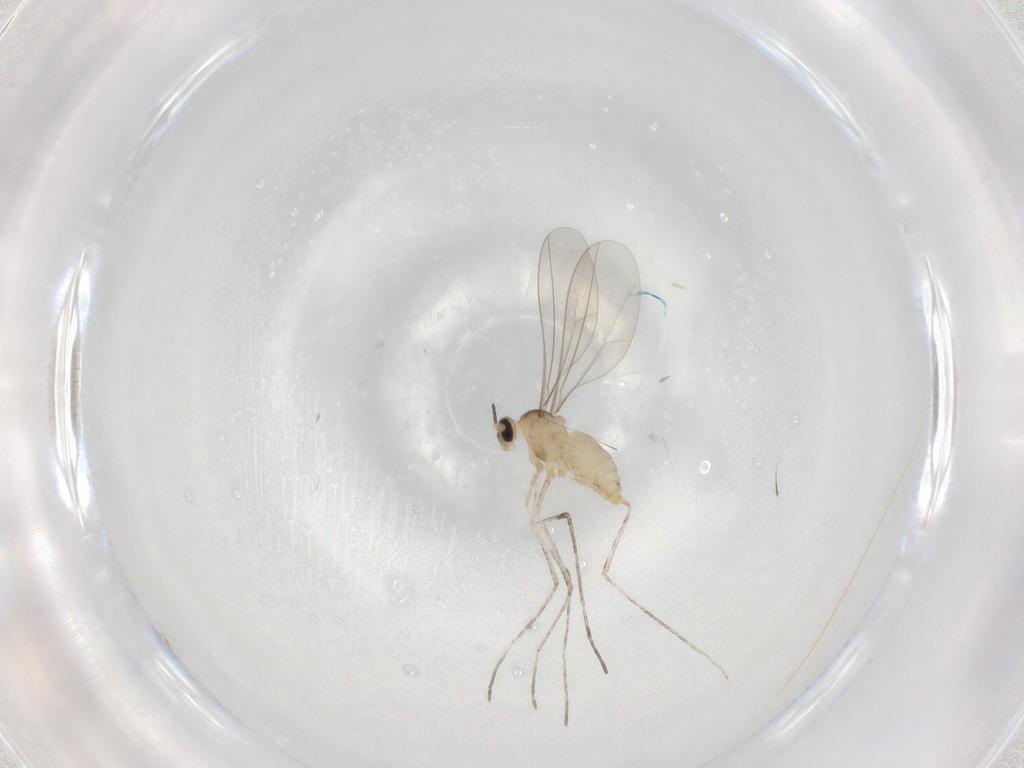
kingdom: Animalia
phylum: Arthropoda
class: Insecta
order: Diptera
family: Cecidomyiidae
